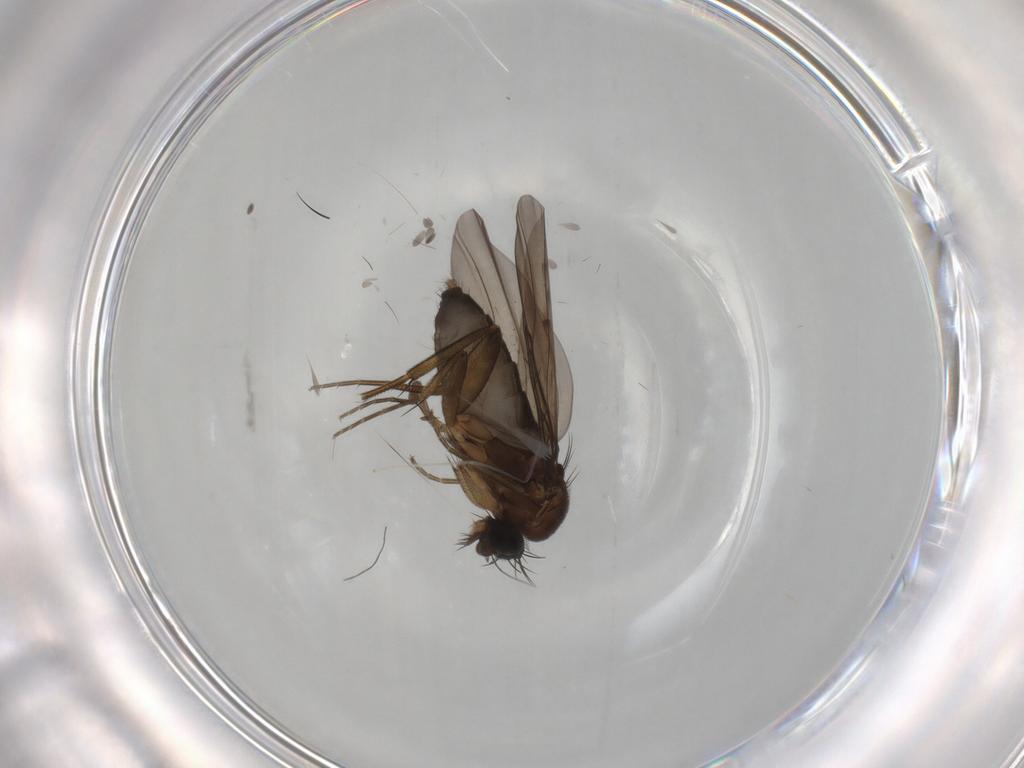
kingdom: Animalia
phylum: Arthropoda
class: Insecta
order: Diptera
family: Phoridae
